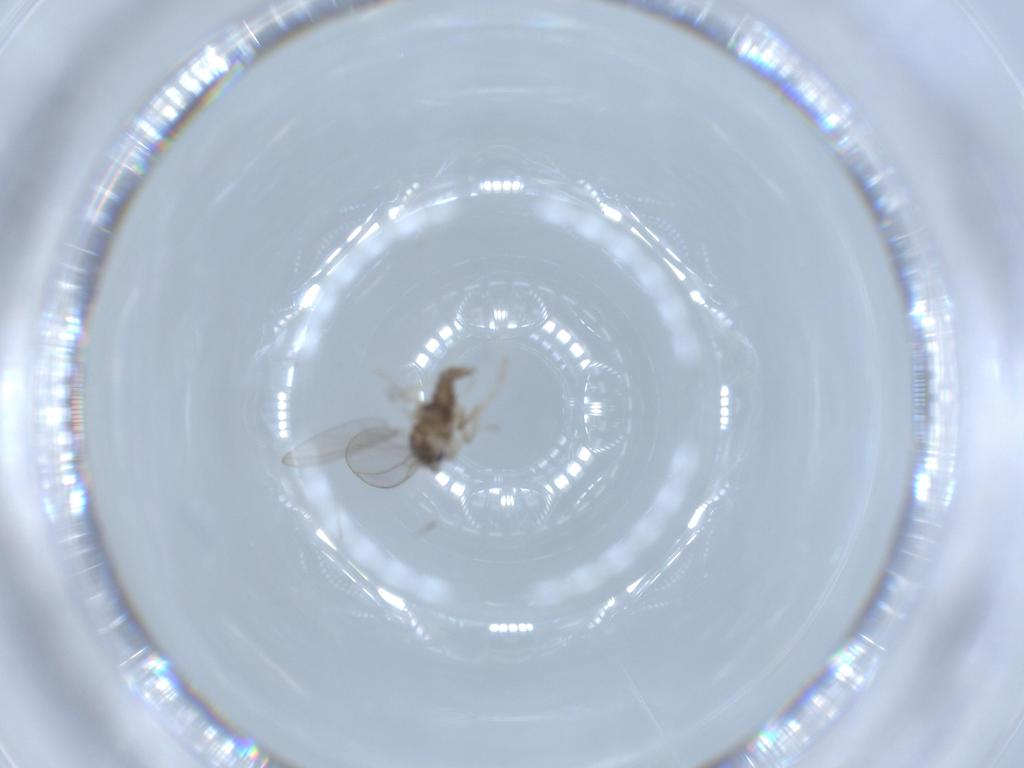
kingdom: Animalia
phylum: Arthropoda
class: Insecta
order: Diptera
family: Cecidomyiidae
